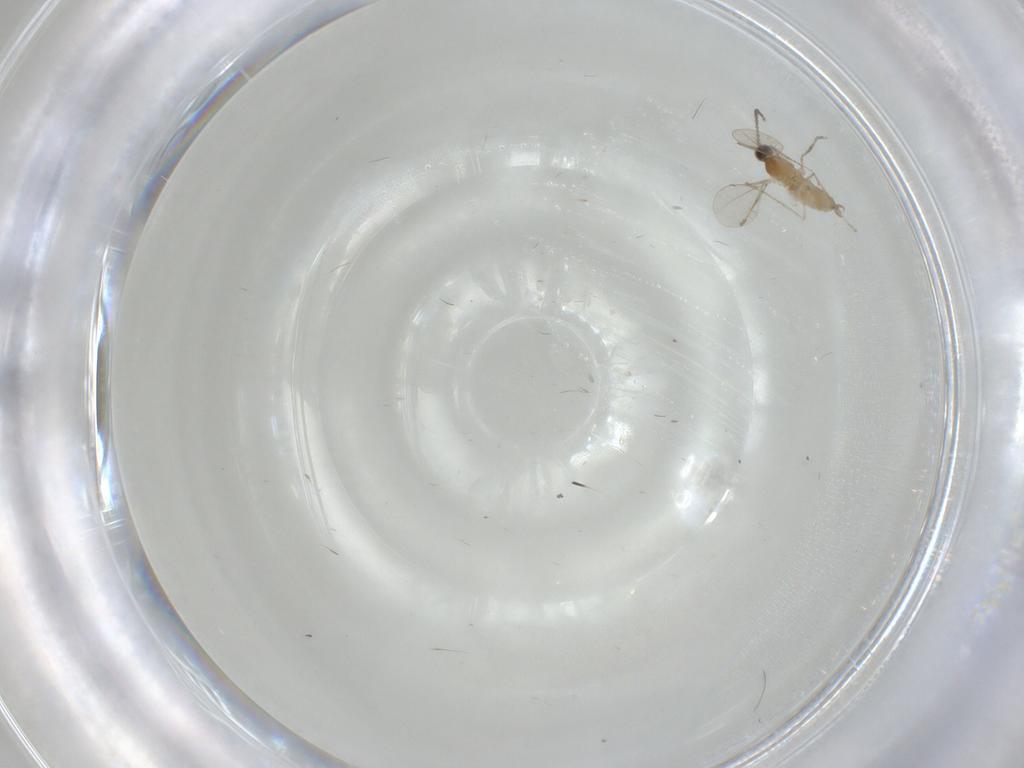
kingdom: Animalia
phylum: Arthropoda
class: Insecta
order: Diptera
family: Cecidomyiidae
